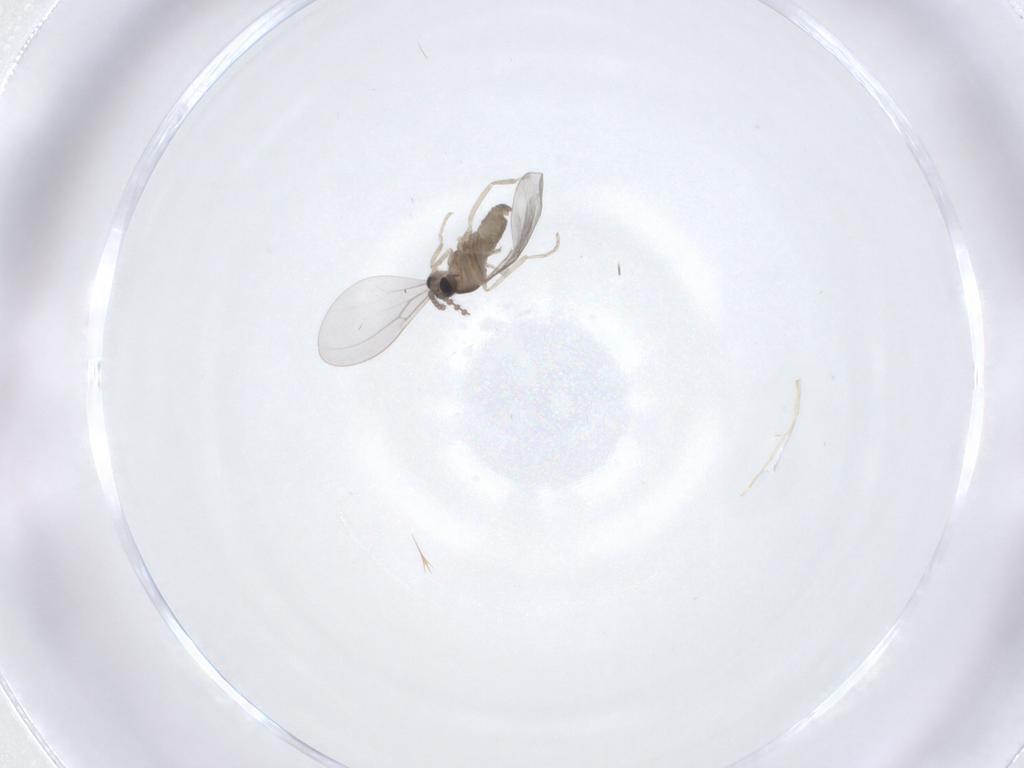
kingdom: Animalia
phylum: Arthropoda
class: Insecta
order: Diptera
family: Cecidomyiidae
